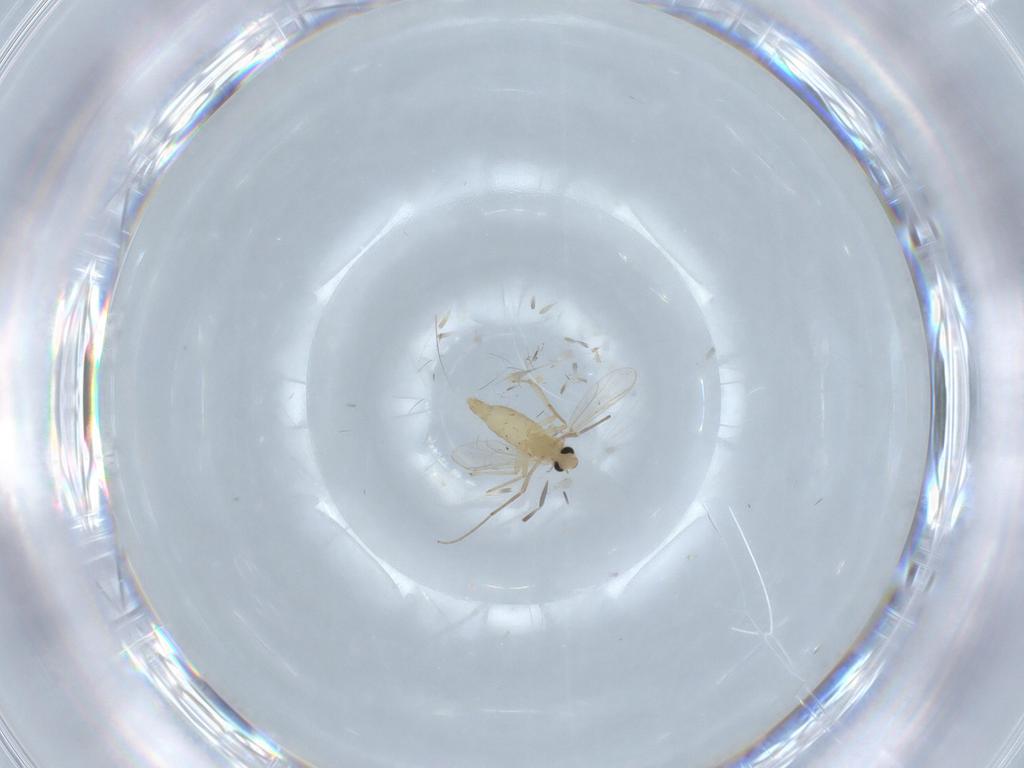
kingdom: Animalia
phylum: Arthropoda
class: Insecta
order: Diptera
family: Chironomidae
